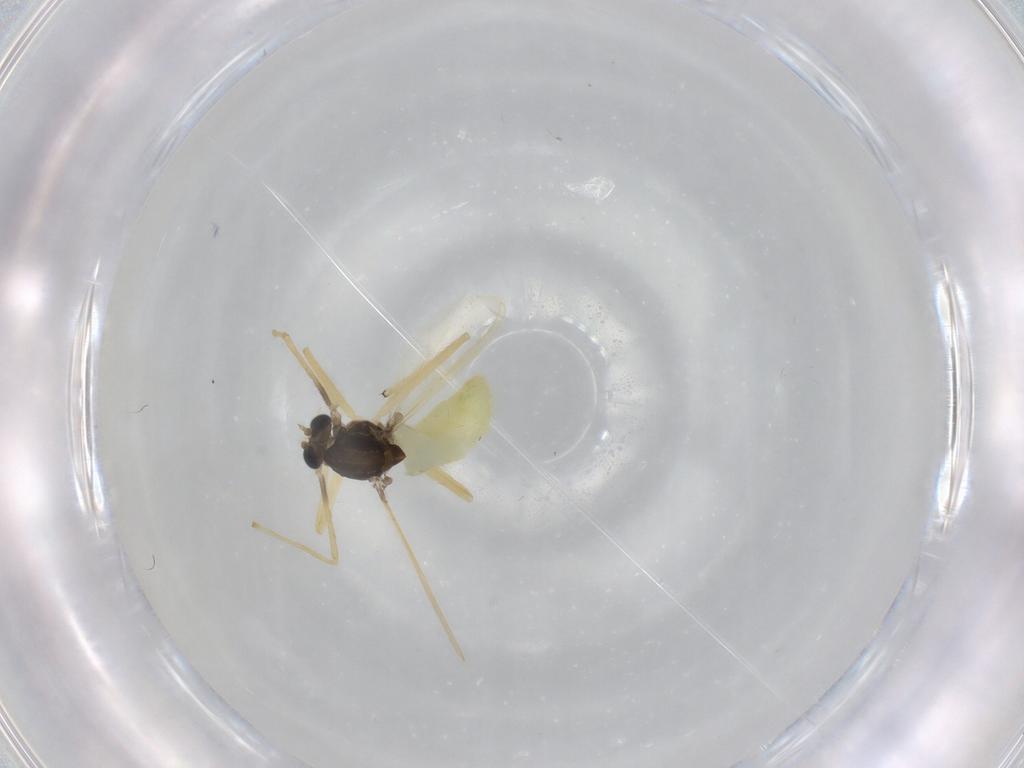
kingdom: Animalia
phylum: Arthropoda
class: Insecta
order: Diptera
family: Chironomidae
